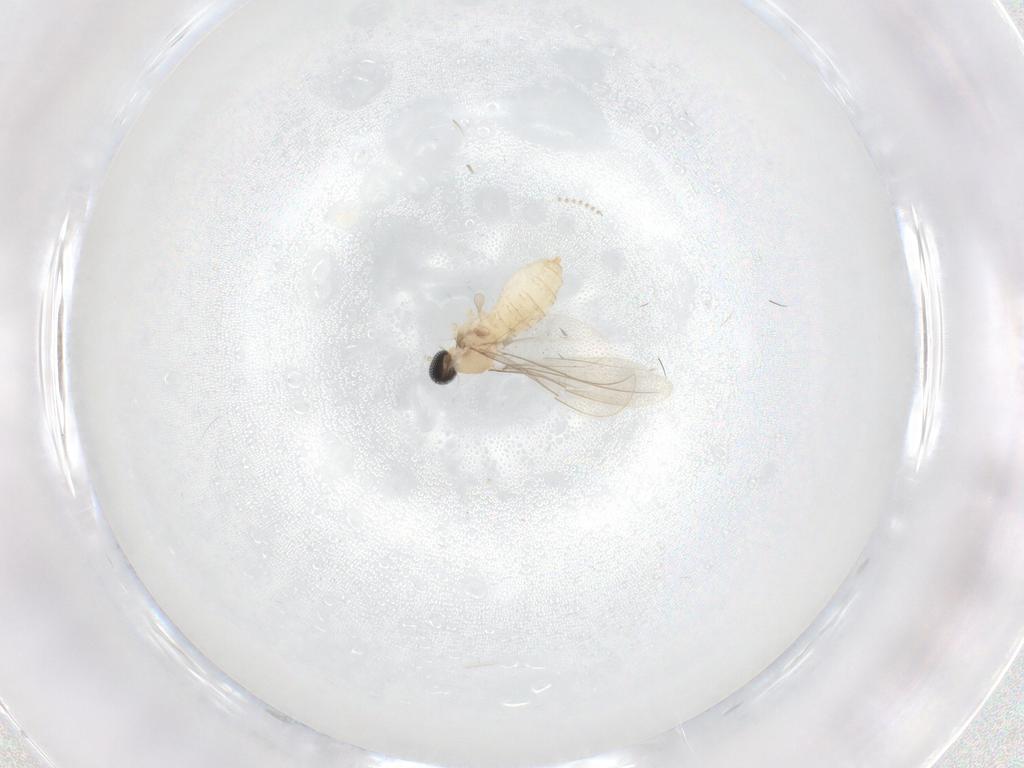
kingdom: Animalia
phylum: Arthropoda
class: Insecta
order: Diptera
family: Cecidomyiidae
